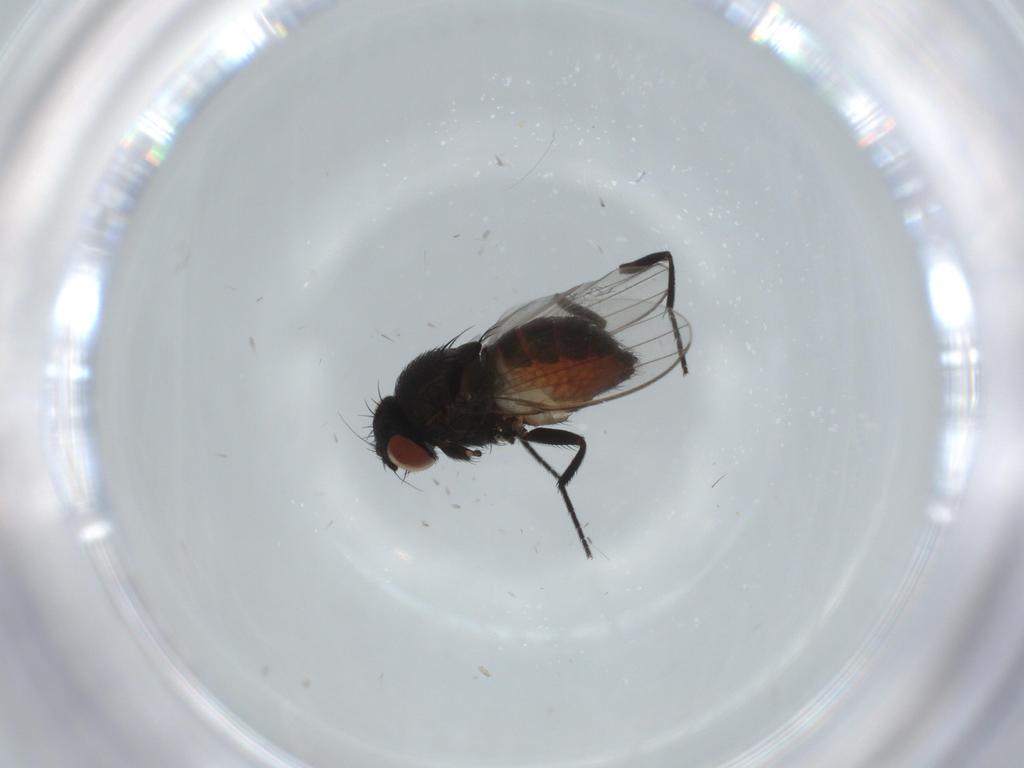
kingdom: Animalia
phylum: Arthropoda
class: Insecta
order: Diptera
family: Milichiidae
